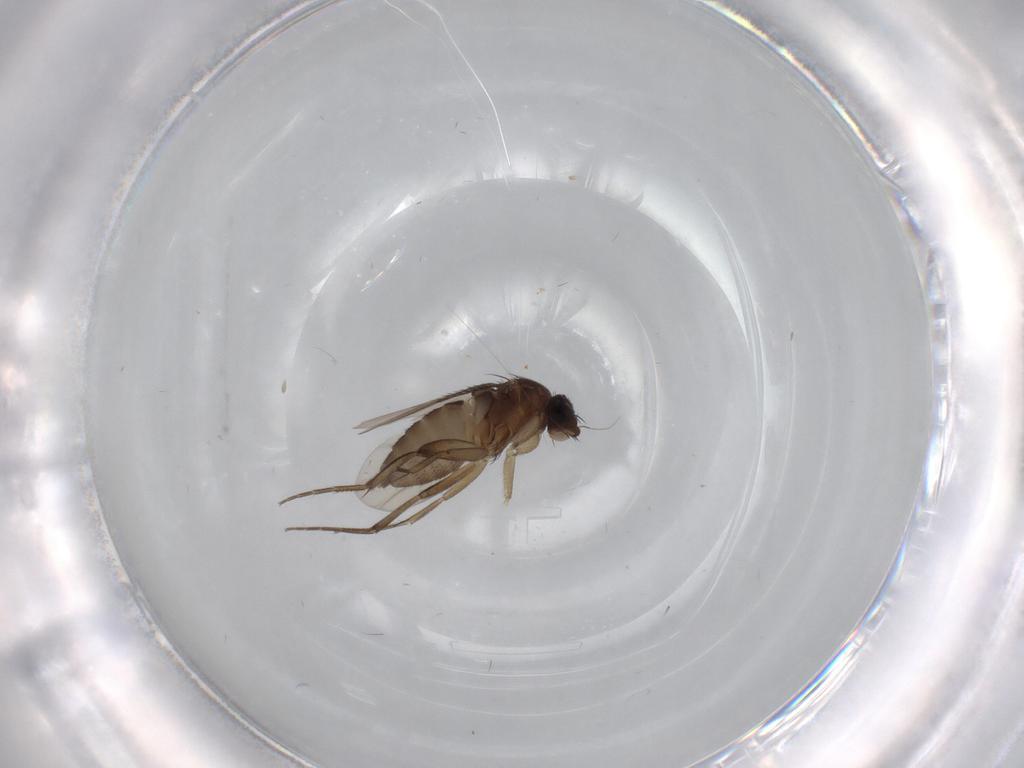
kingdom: Animalia
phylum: Arthropoda
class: Insecta
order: Diptera
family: Phoridae
